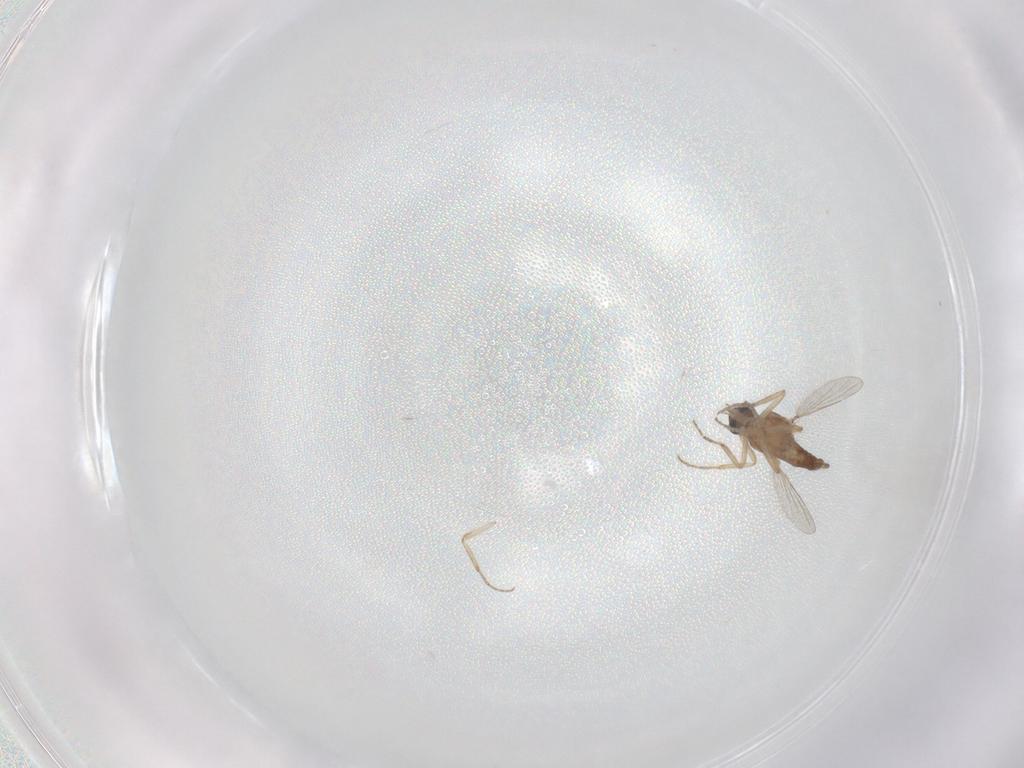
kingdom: Animalia
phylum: Arthropoda
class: Insecta
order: Diptera
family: Ceratopogonidae
